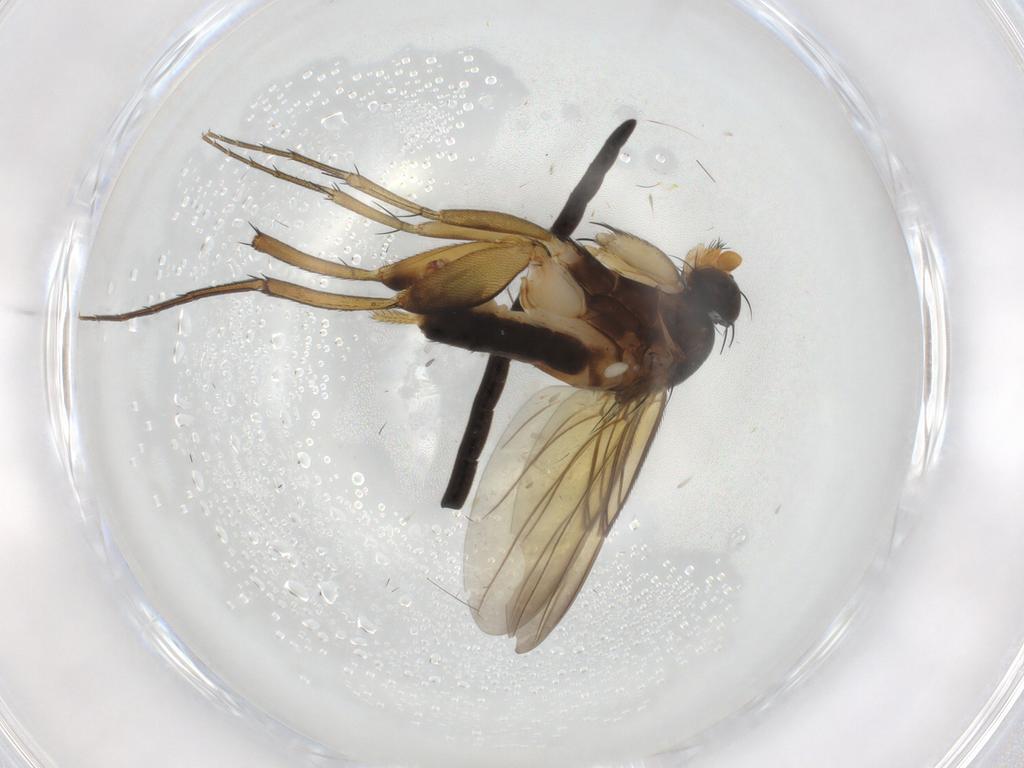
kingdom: Animalia
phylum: Arthropoda
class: Insecta
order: Diptera
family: Phoridae
